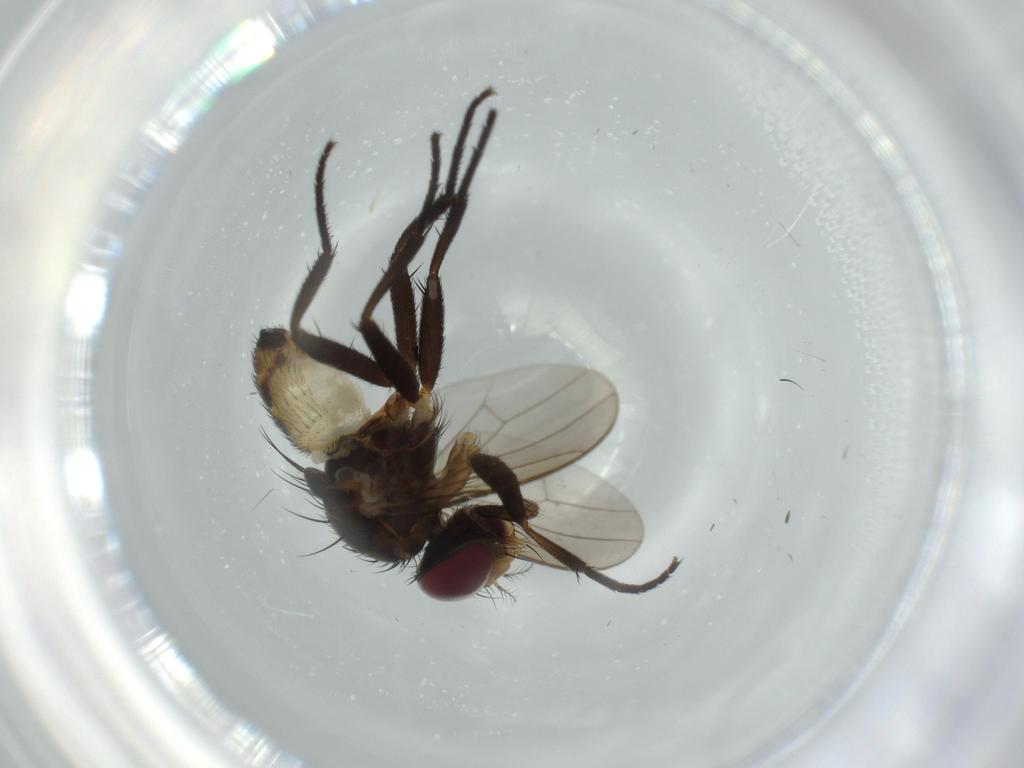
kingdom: Animalia
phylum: Arthropoda
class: Insecta
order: Diptera
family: Anthomyiidae
